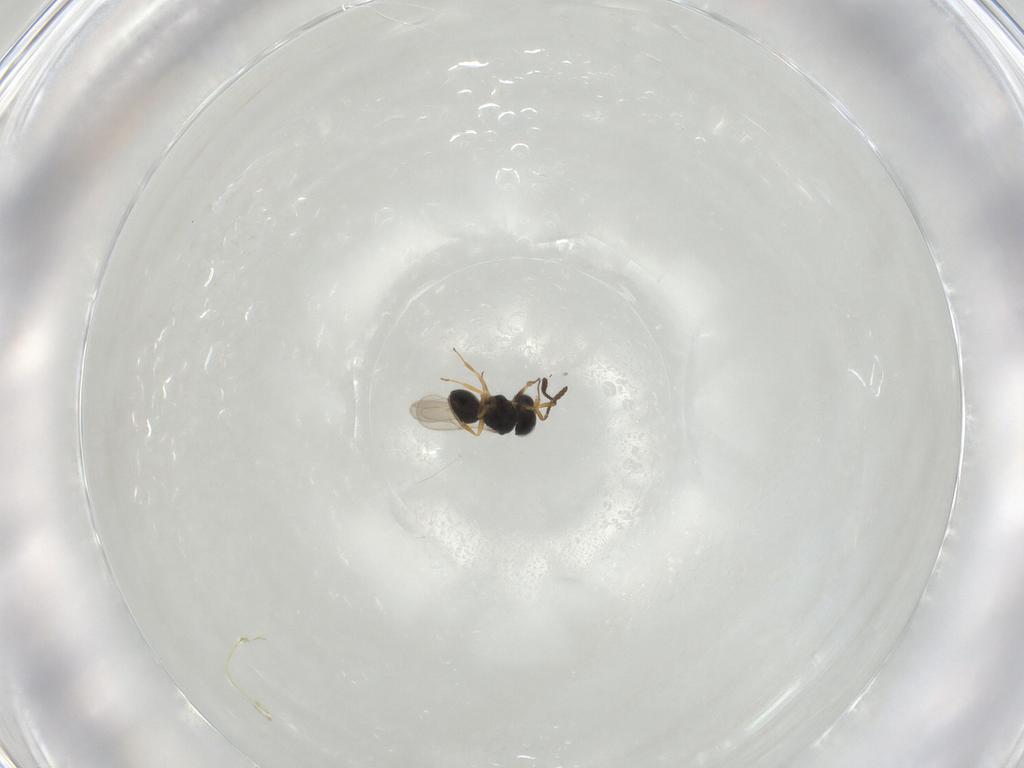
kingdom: Animalia
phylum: Arthropoda
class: Insecta
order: Hymenoptera
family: Scelionidae
